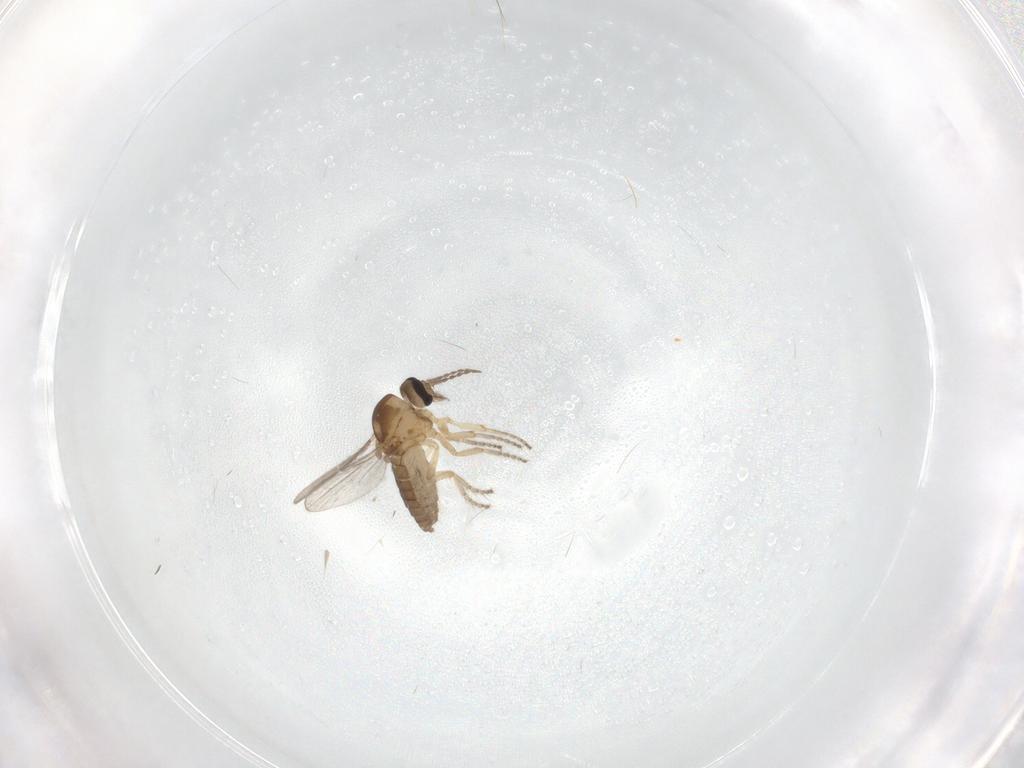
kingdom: Animalia
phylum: Arthropoda
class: Insecta
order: Diptera
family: Ceratopogonidae
